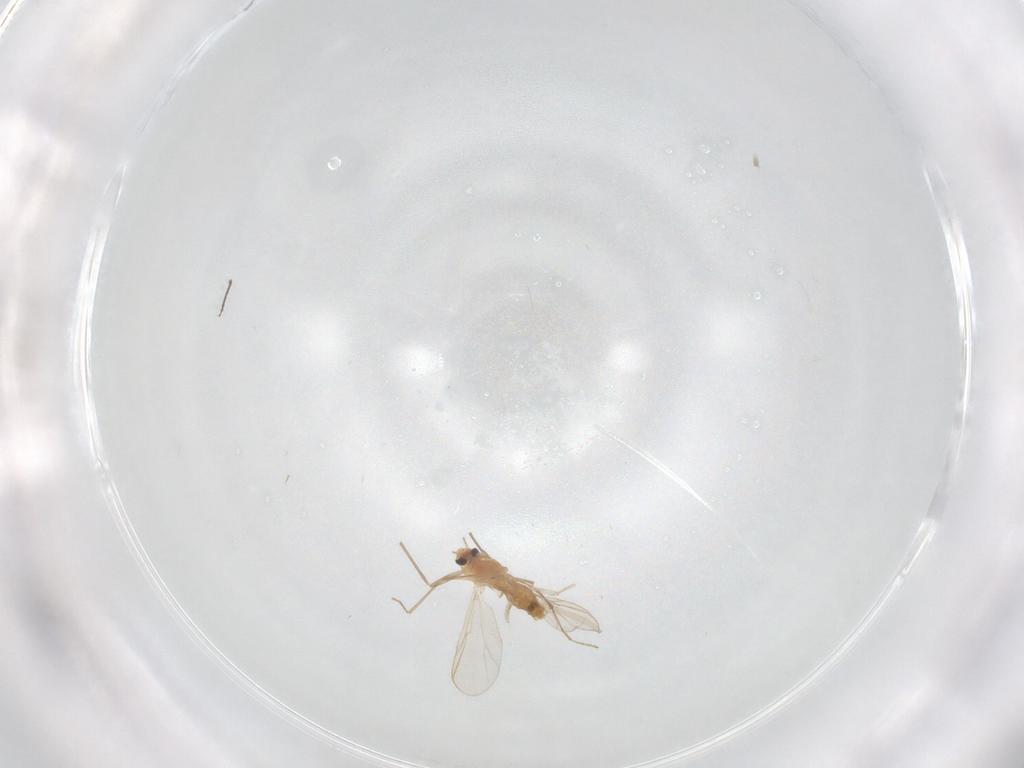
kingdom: Animalia
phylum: Arthropoda
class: Insecta
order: Diptera
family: Chironomidae
